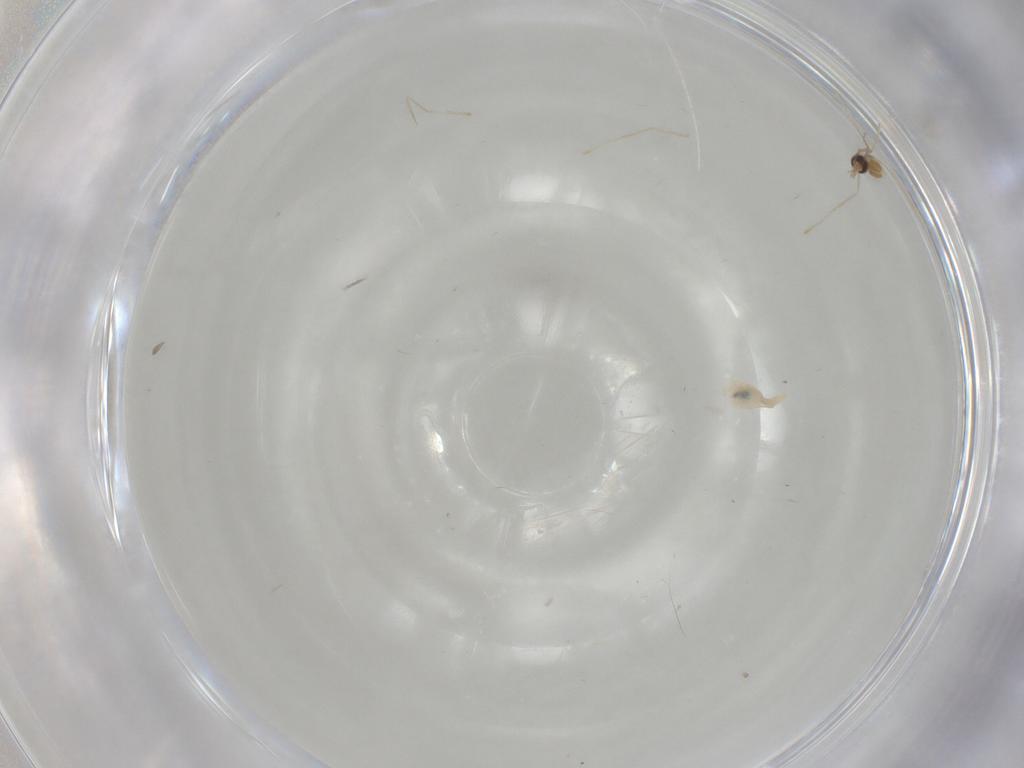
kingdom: Animalia
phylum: Arthropoda
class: Insecta
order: Diptera
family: Cecidomyiidae
